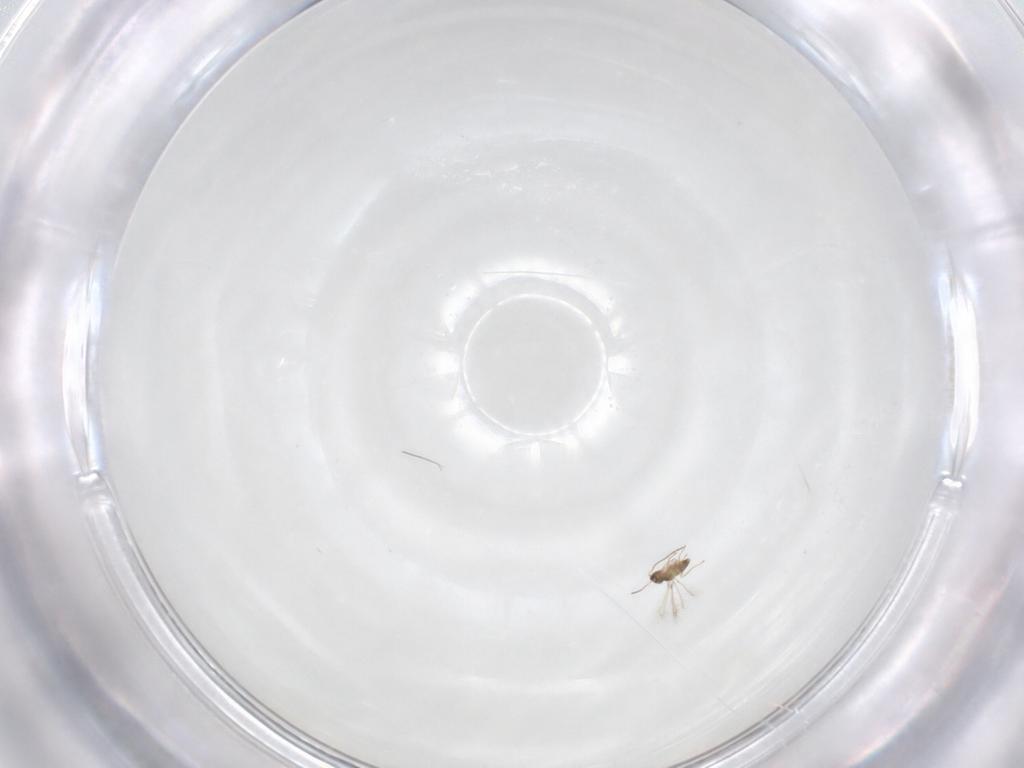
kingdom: Animalia
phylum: Arthropoda
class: Insecta
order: Hymenoptera
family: Mymaridae
